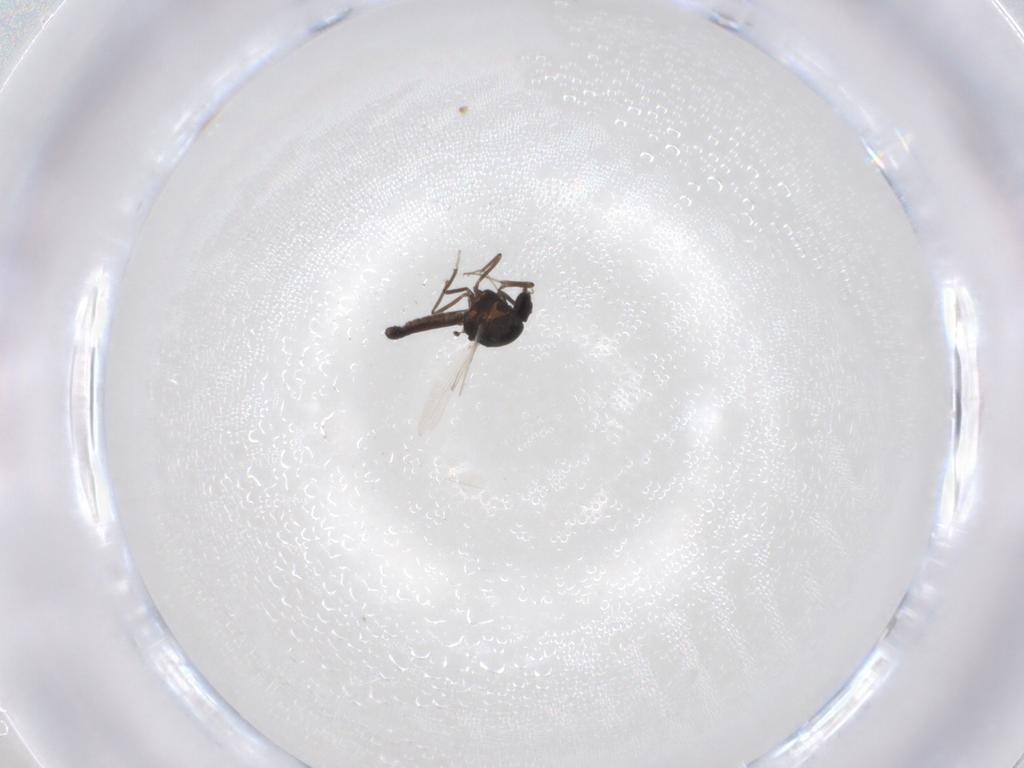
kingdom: Animalia
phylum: Arthropoda
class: Insecta
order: Diptera
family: Ceratopogonidae
